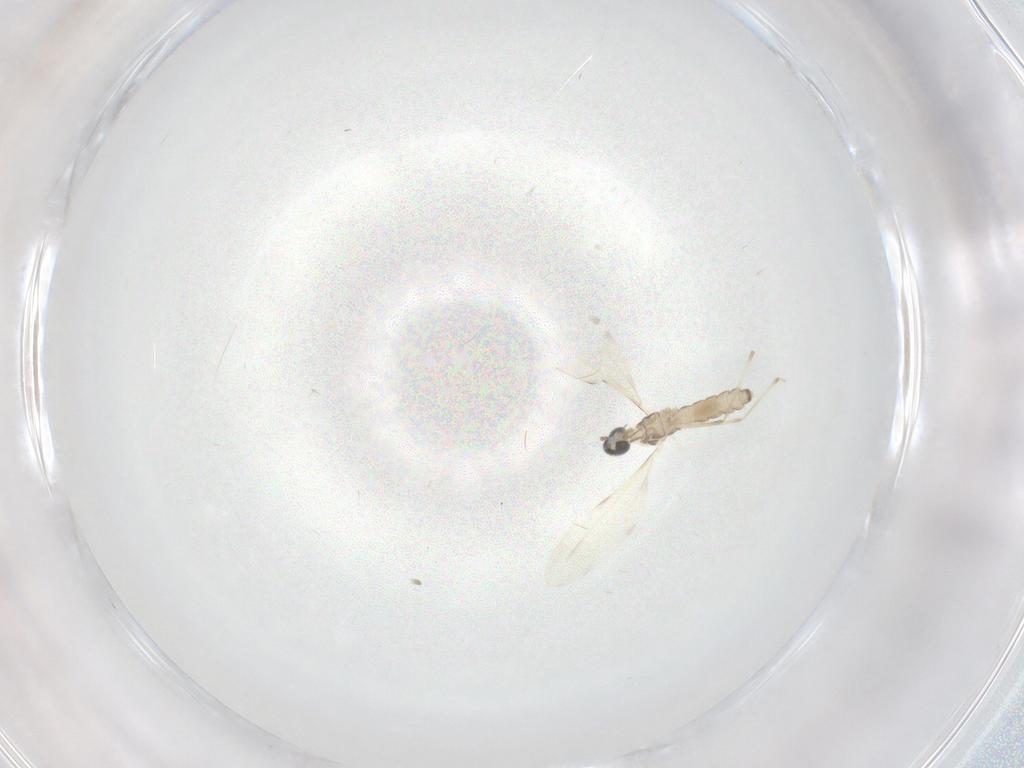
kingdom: Animalia
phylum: Arthropoda
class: Insecta
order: Diptera
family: Cecidomyiidae
